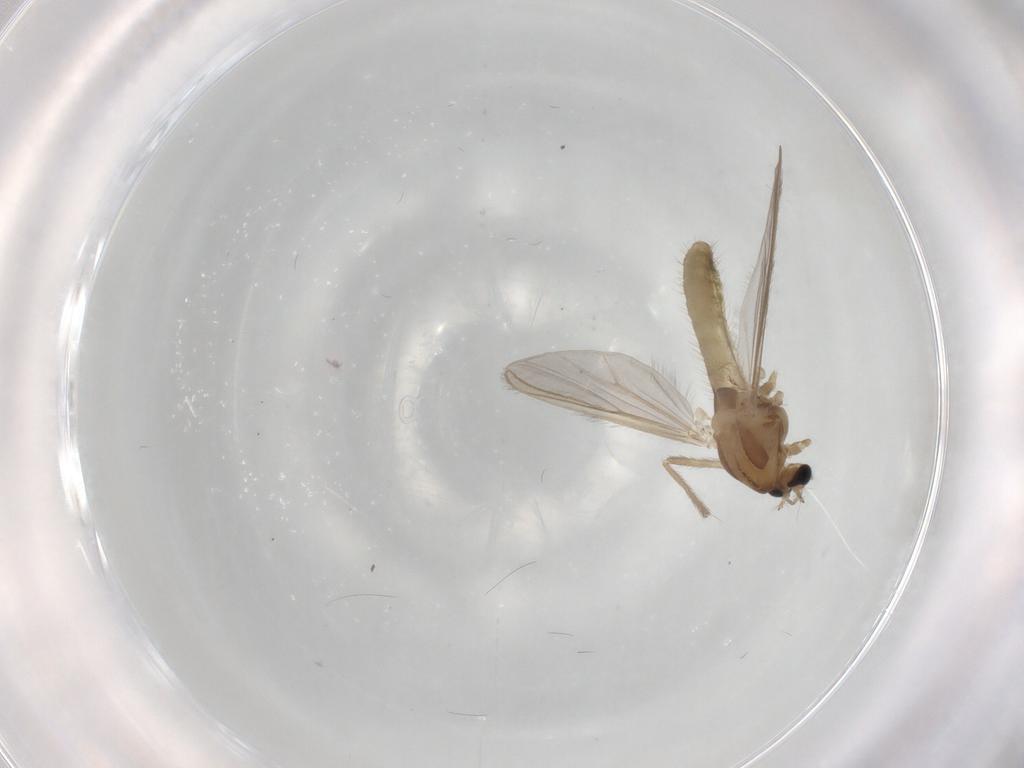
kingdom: Animalia
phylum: Arthropoda
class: Insecta
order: Diptera
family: Chironomidae
